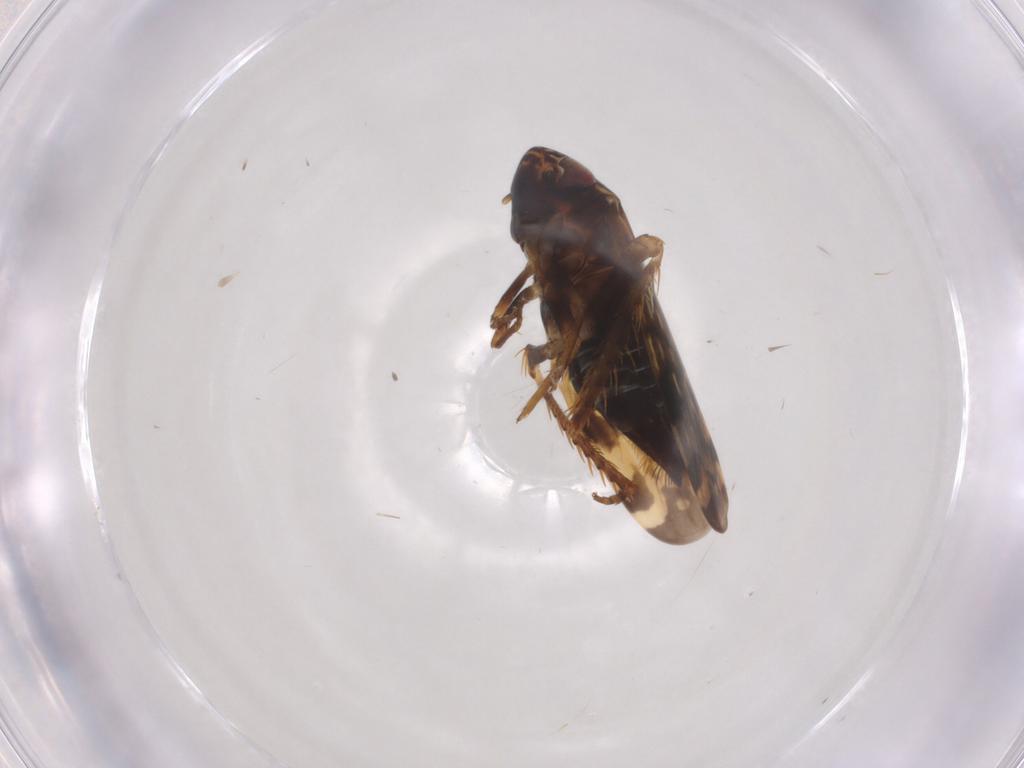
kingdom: Animalia
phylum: Arthropoda
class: Insecta
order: Hemiptera
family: Cicadellidae
